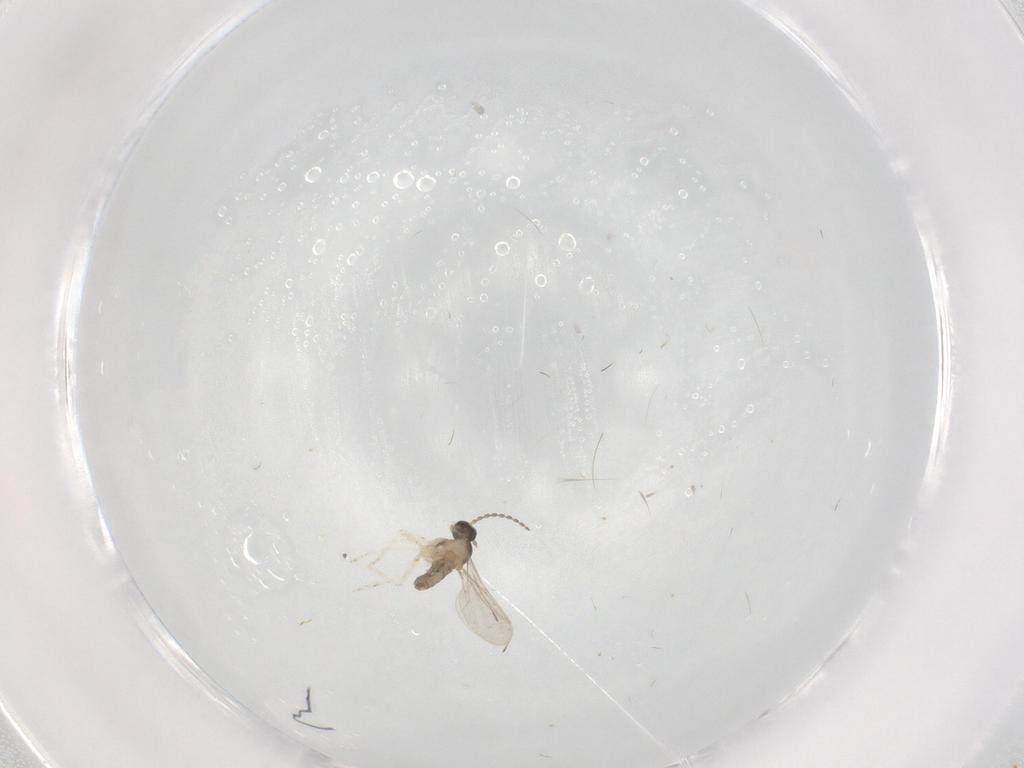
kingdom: Animalia
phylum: Arthropoda
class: Insecta
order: Diptera
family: Cecidomyiidae
